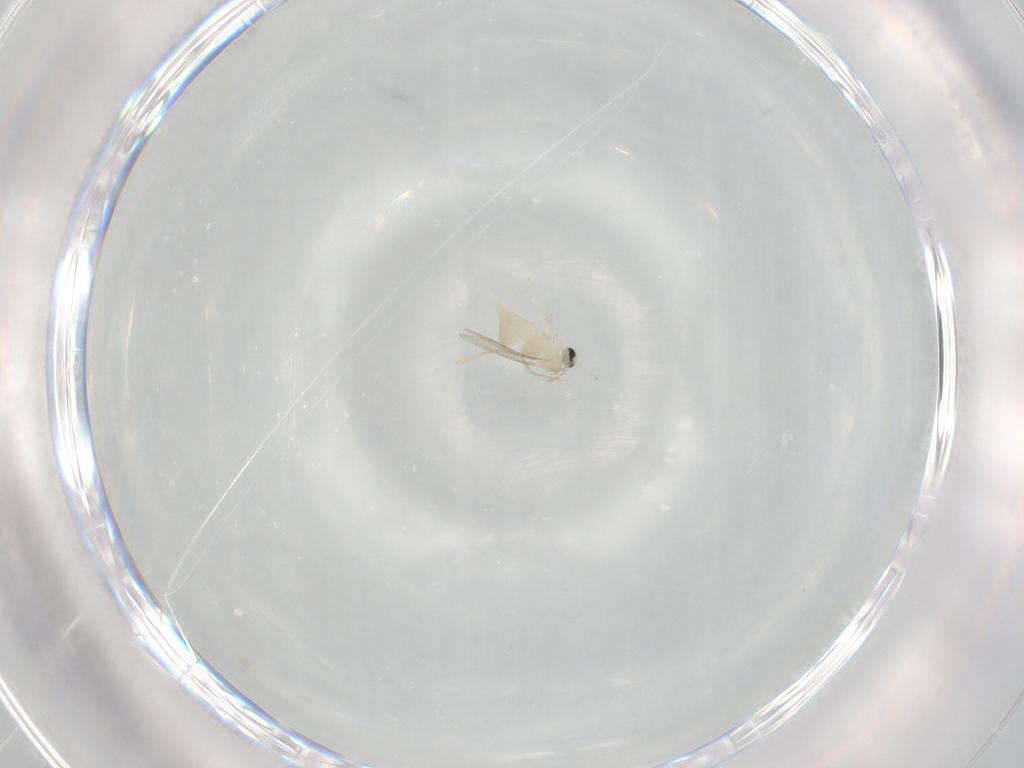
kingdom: Animalia
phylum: Arthropoda
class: Insecta
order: Diptera
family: Cecidomyiidae
